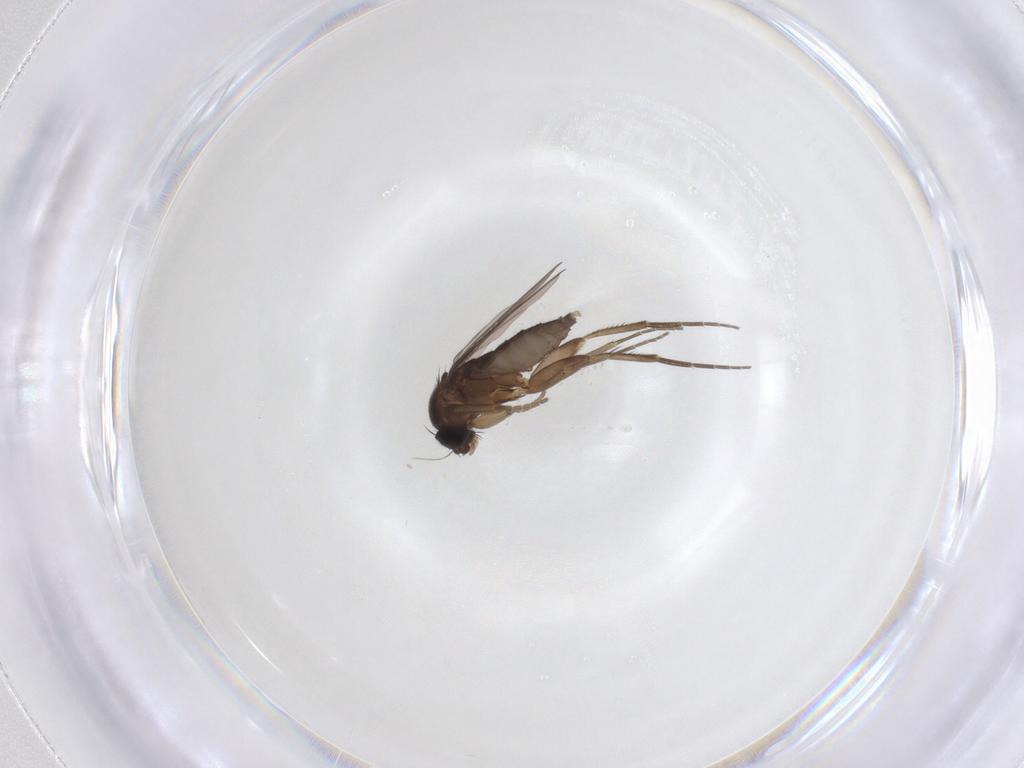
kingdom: Animalia
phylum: Arthropoda
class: Insecta
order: Diptera
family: Phoridae
